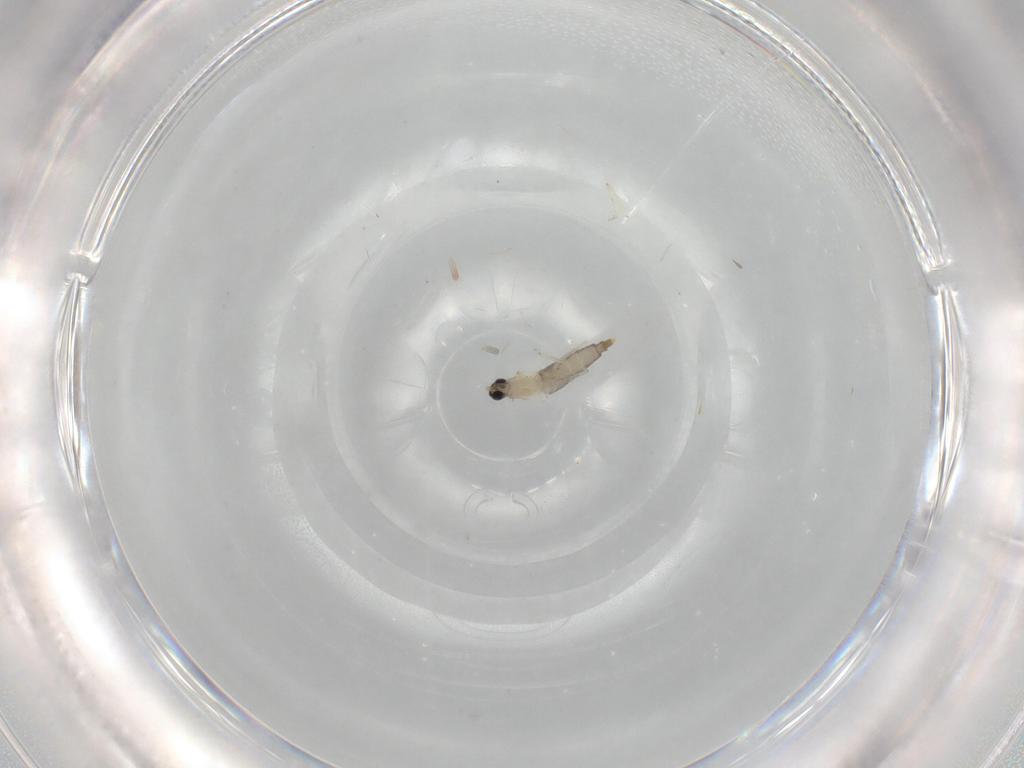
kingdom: Animalia
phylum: Arthropoda
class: Insecta
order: Diptera
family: Cecidomyiidae
